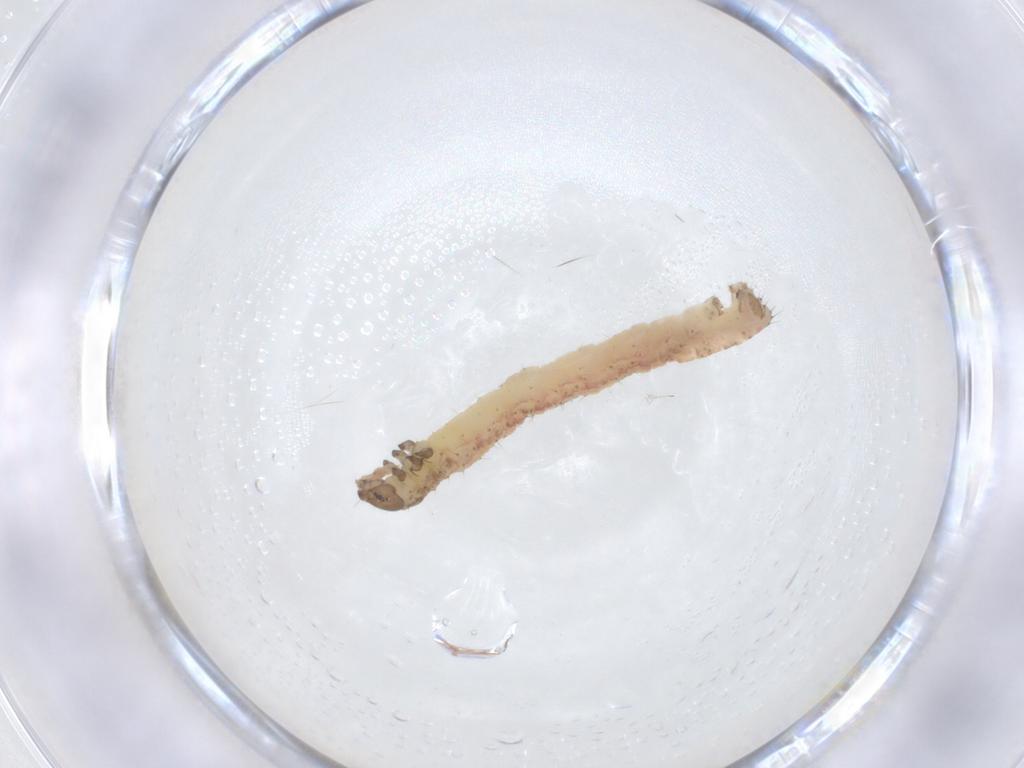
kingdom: Animalia
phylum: Arthropoda
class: Insecta
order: Lepidoptera
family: Geometridae
